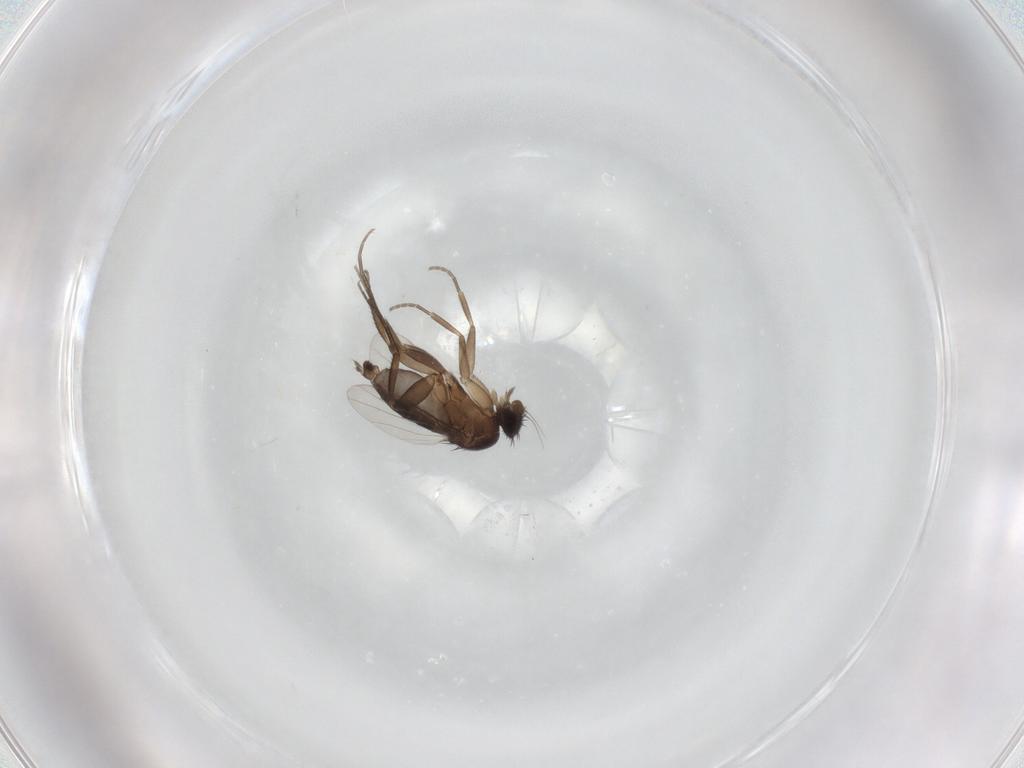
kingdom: Animalia
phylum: Arthropoda
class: Insecta
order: Diptera
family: Phoridae
